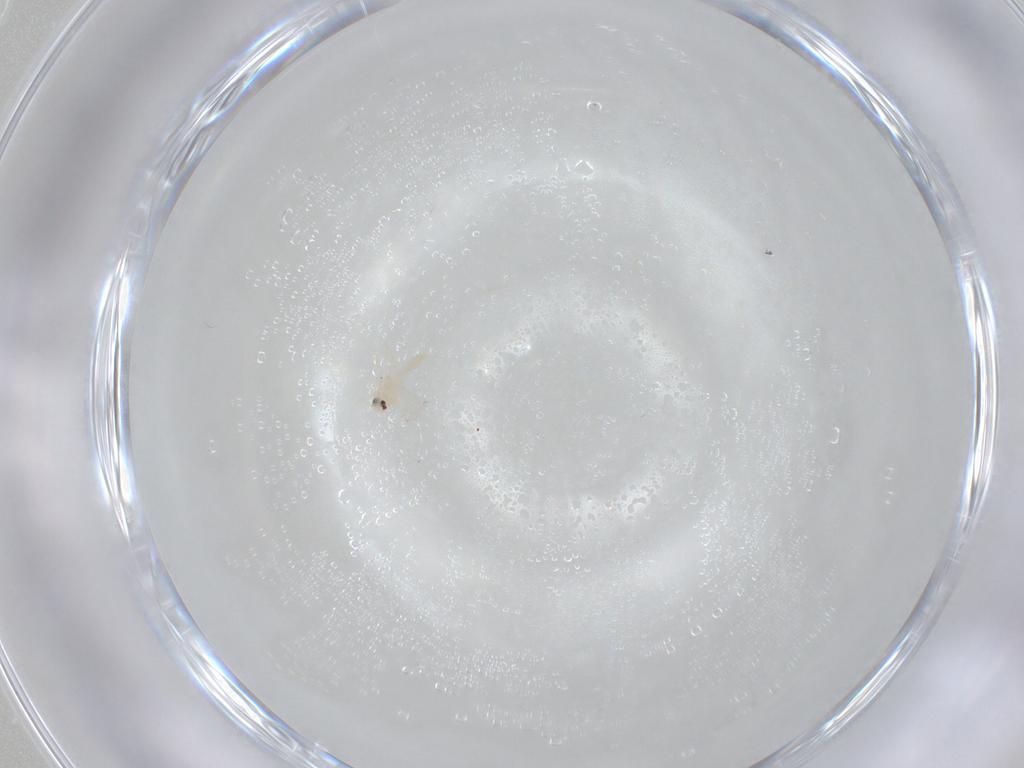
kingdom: Animalia
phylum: Arthropoda
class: Insecta
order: Hemiptera
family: Aleyrodidae
